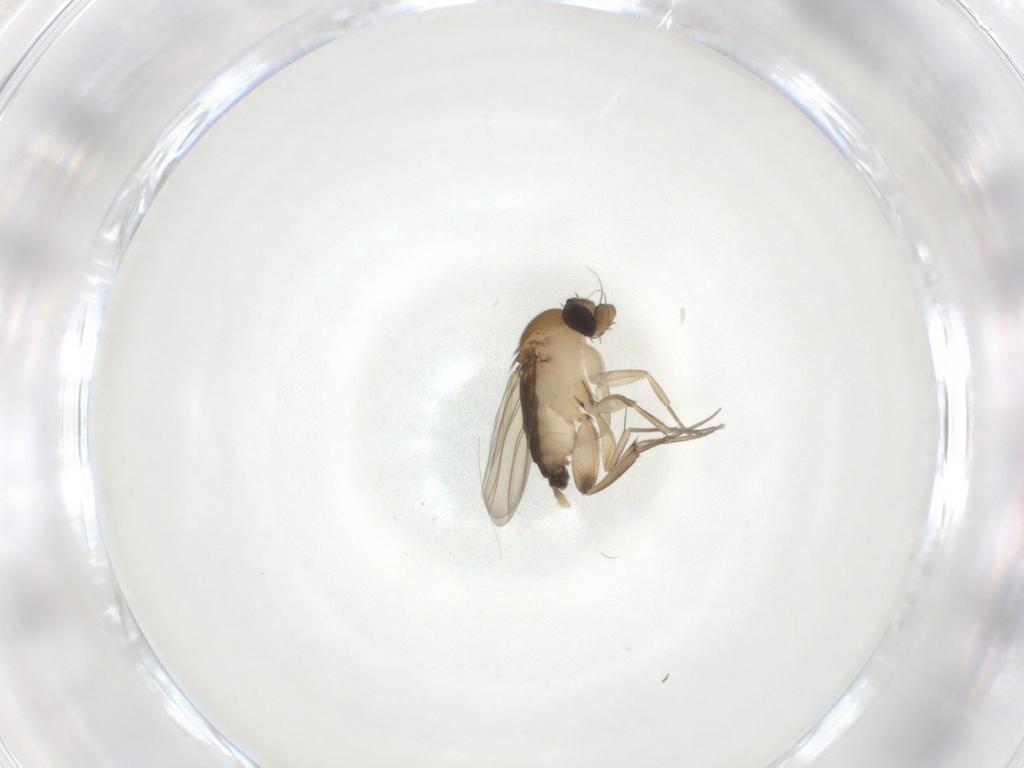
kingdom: Animalia
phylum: Arthropoda
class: Insecta
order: Diptera
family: Phoridae
